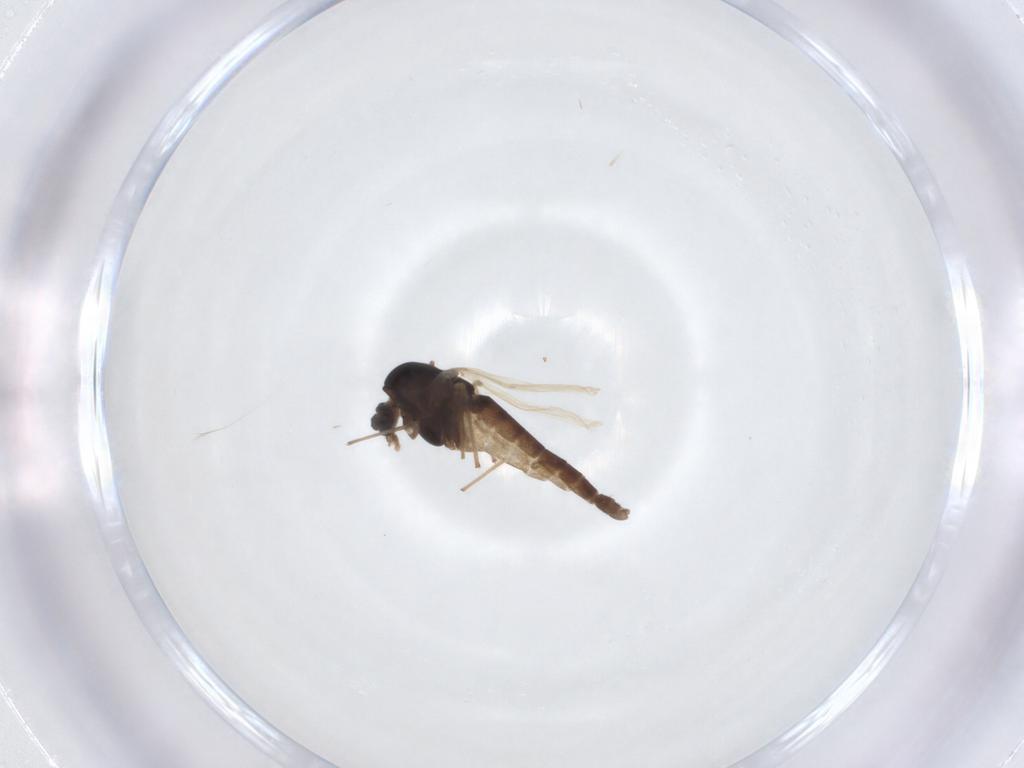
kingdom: Animalia
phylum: Arthropoda
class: Insecta
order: Diptera
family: Chironomidae
